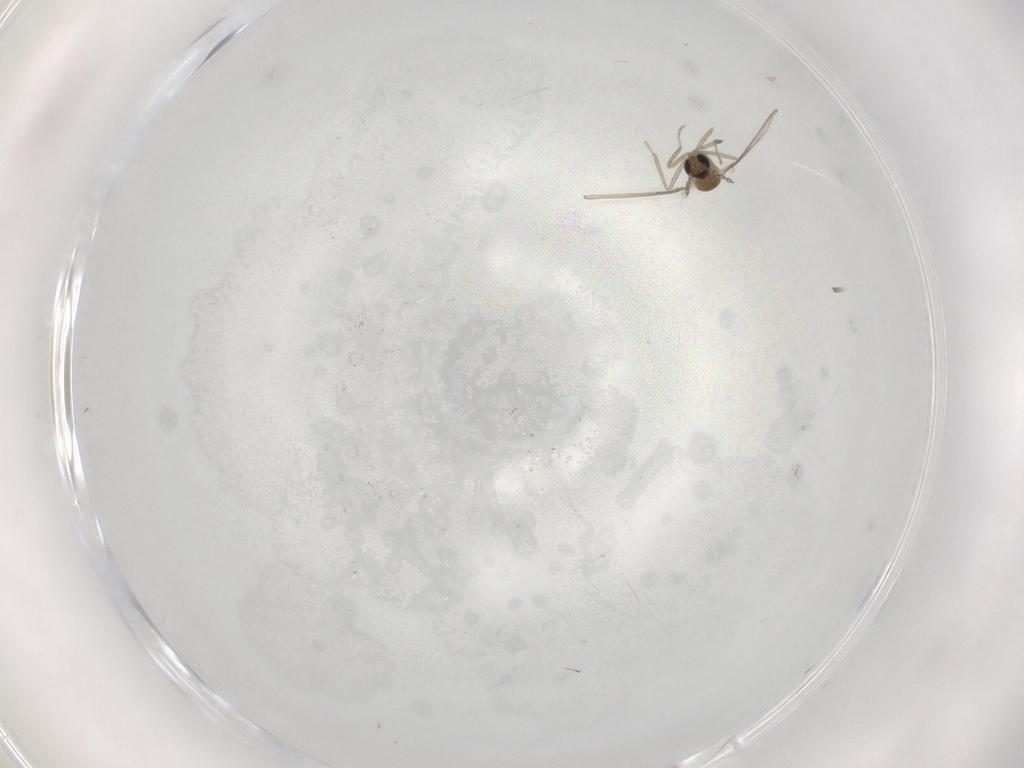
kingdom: Animalia
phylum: Arthropoda
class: Insecta
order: Diptera
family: Cecidomyiidae
